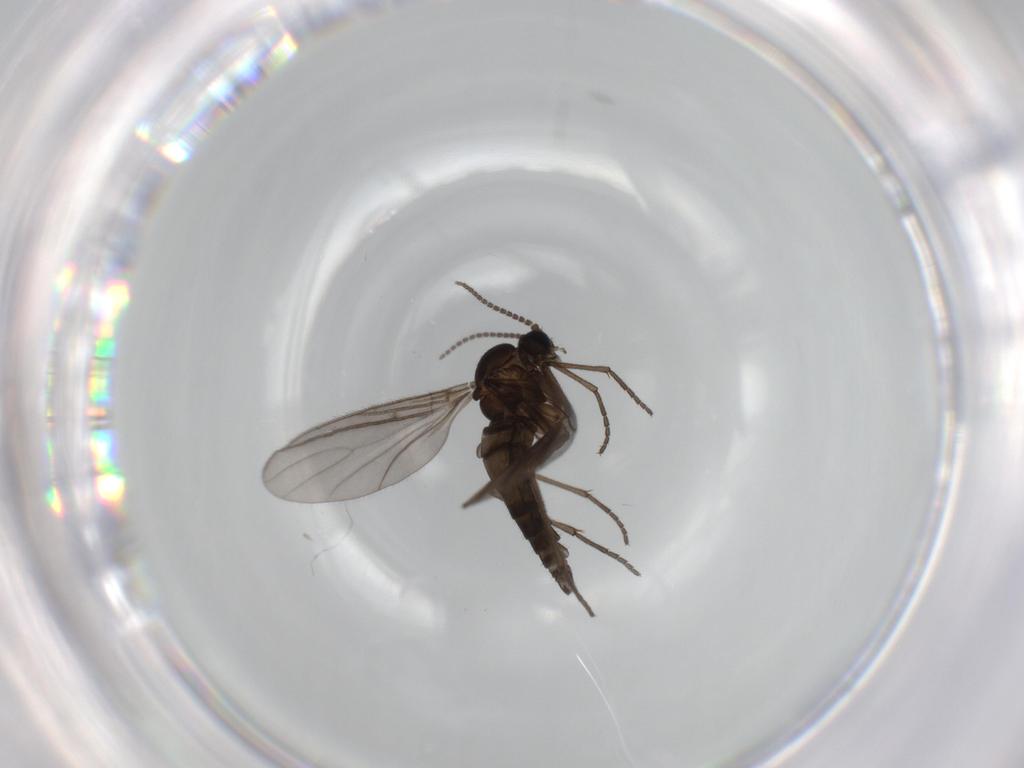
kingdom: Animalia
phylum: Arthropoda
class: Insecta
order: Diptera
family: Sciaridae
